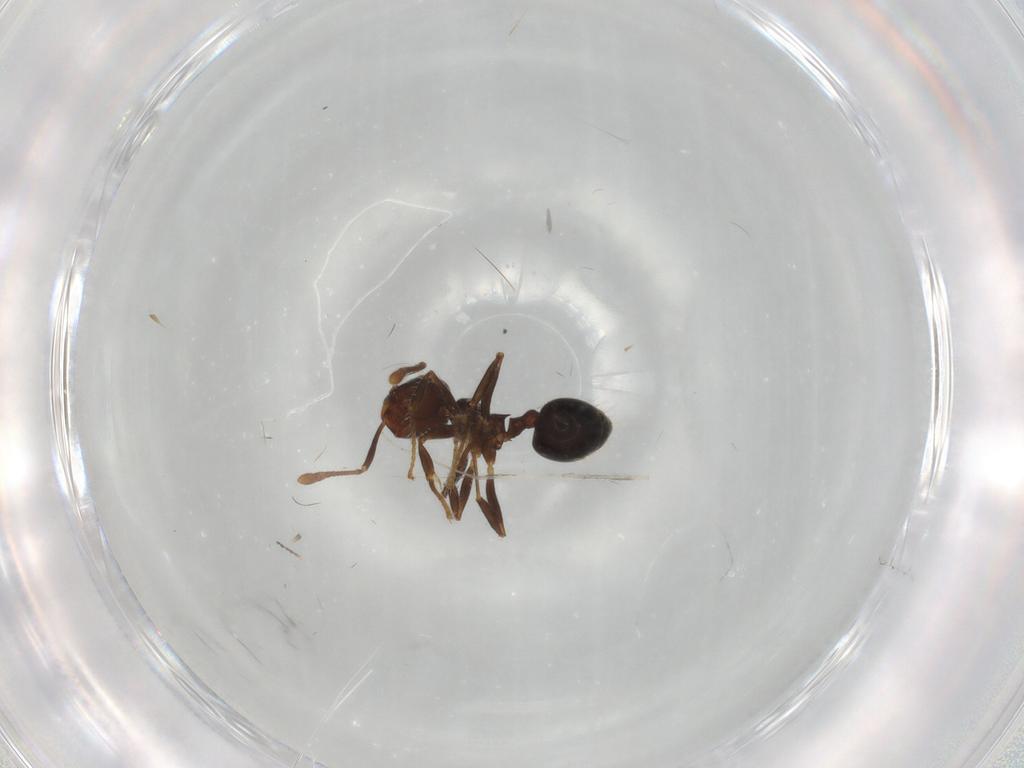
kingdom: Animalia
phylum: Arthropoda
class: Insecta
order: Hymenoptera
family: Formicidae
